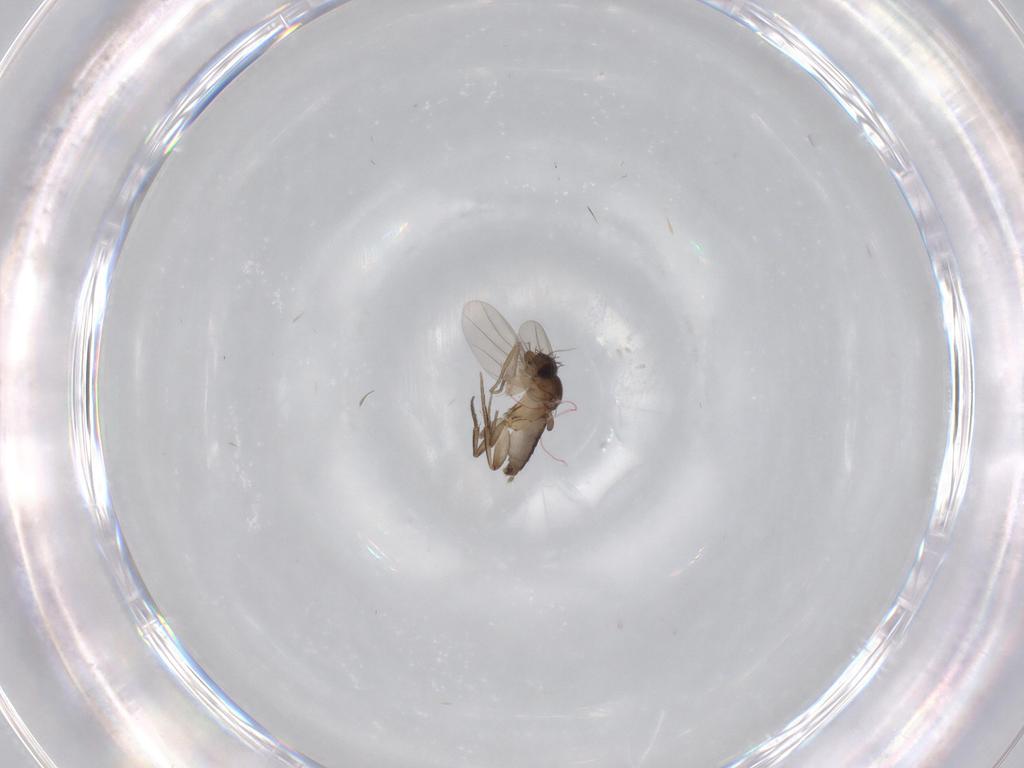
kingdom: Animalia
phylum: Arthropoda
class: Insecta
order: Diptera
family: Phoridae
